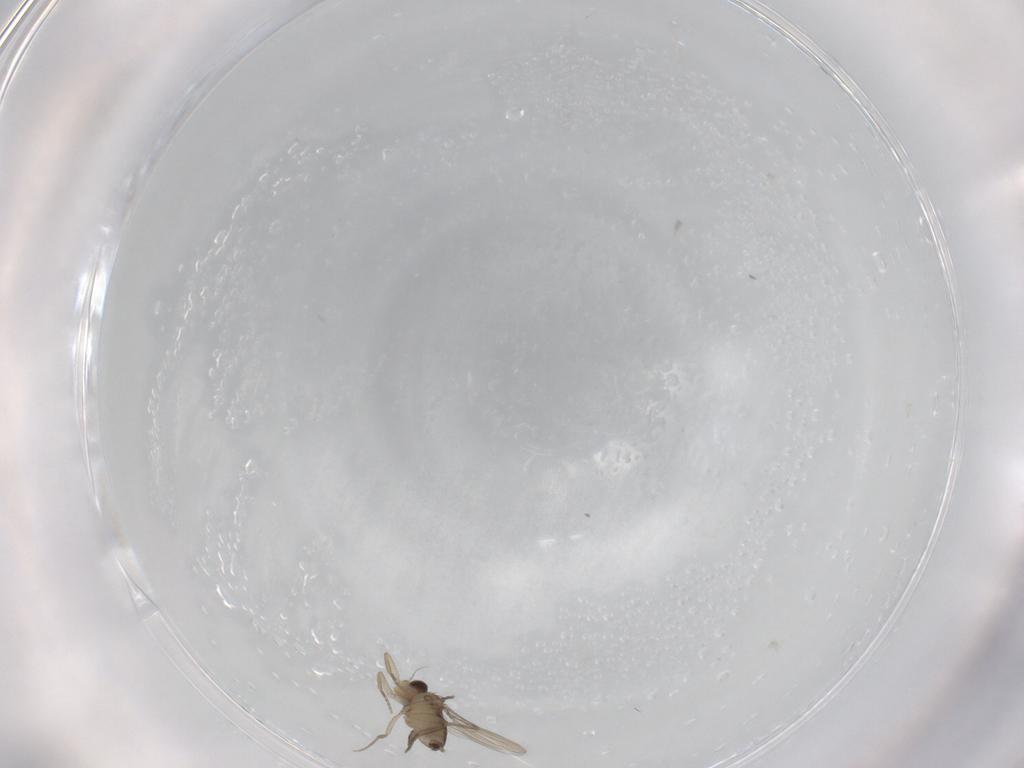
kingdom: Animalia
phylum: Arthropoda
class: Insecta
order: Diptera
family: Phoridae
